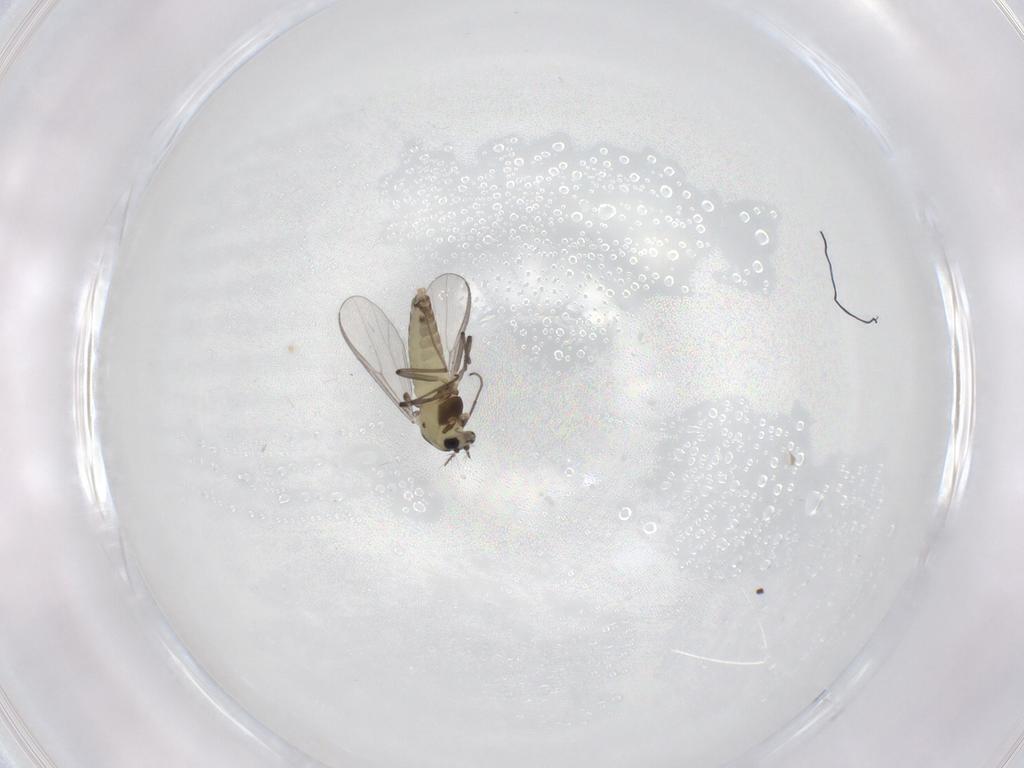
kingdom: Animalia
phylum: Arthropoda
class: Insecta
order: Diptera
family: Chironomidae
